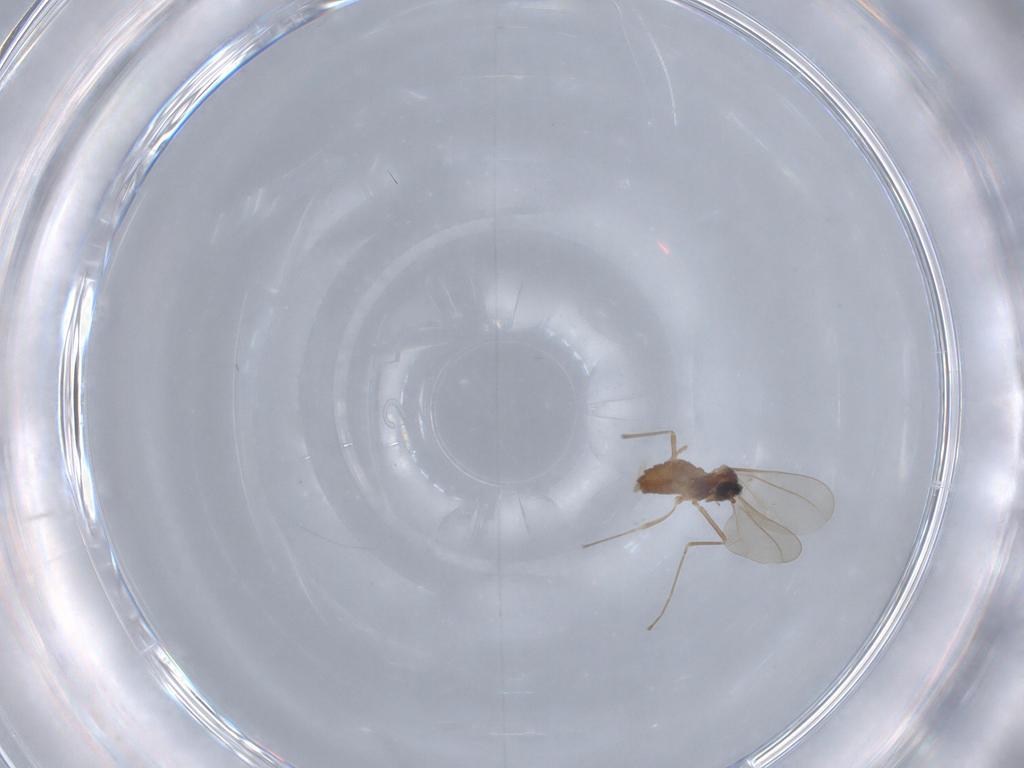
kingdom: Animalia
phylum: Arthropoda
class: Insecta
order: Diptera
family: Cecidomyiidae
